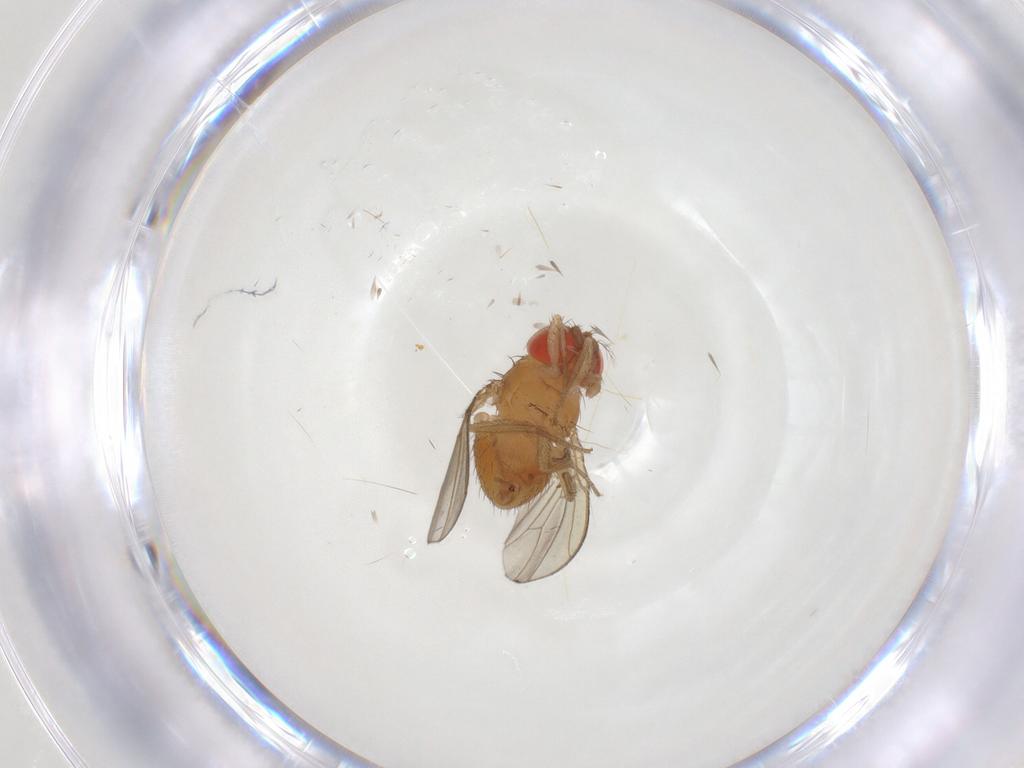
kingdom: Animalia
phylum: Arthropoda
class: Insecta
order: Diptera
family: Drosophilidae
